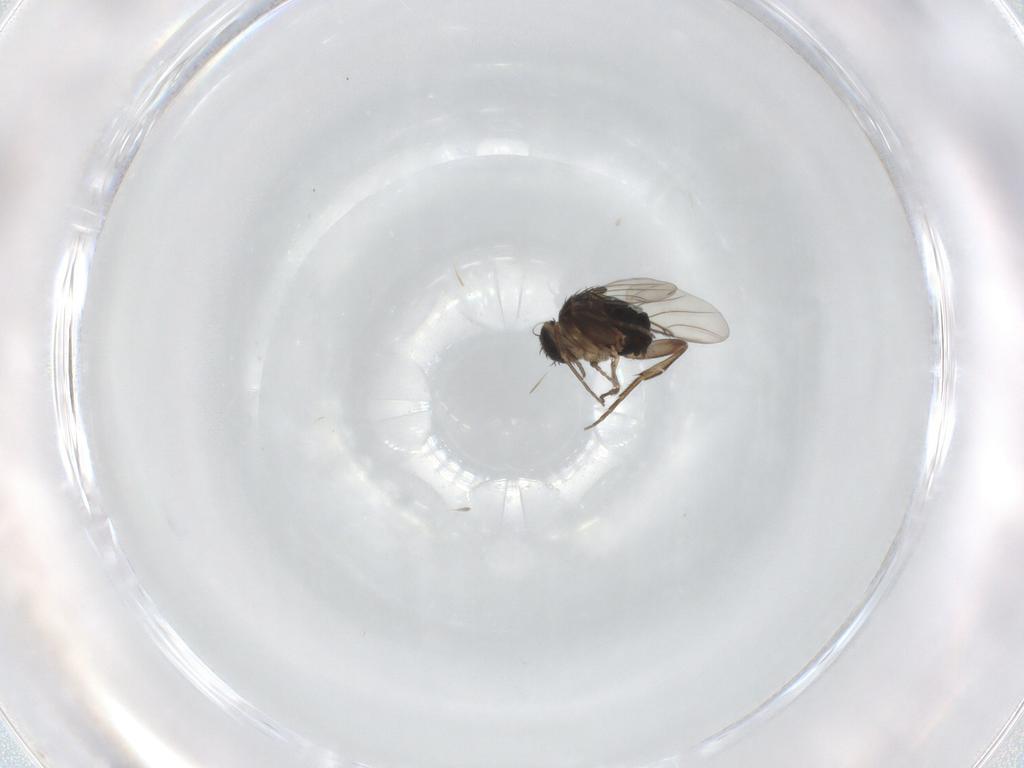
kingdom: Animalia
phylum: Arthropoda
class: Insecta
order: Diptera
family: Phoridae
